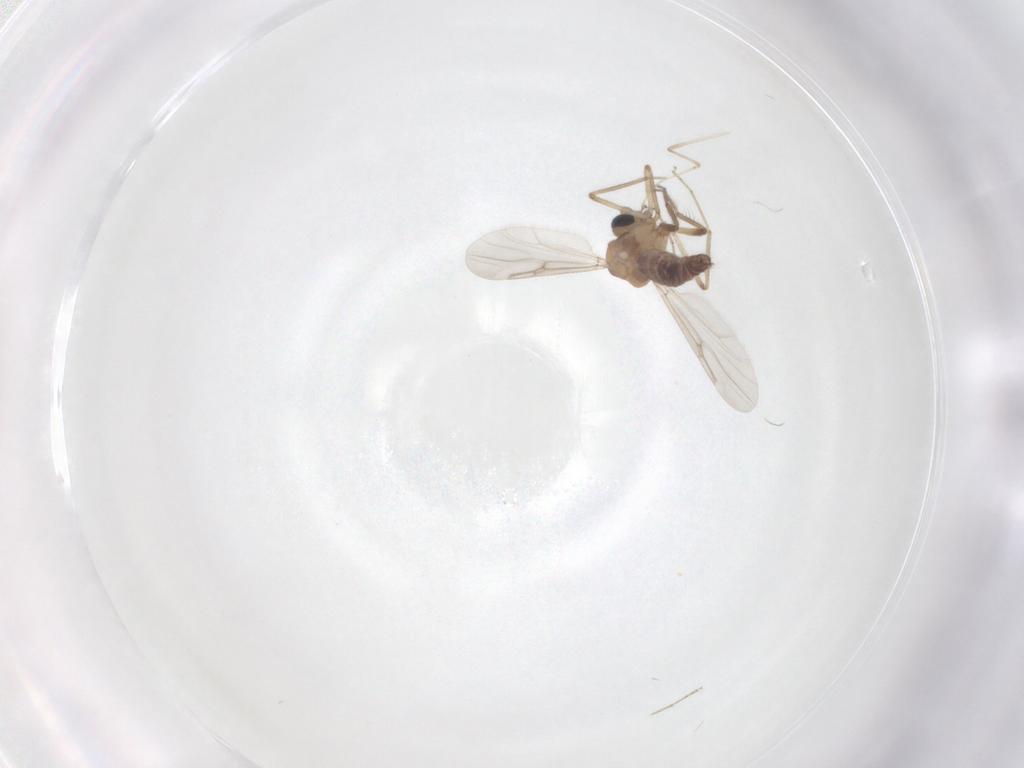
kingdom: Animalia
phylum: Arthropoda
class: Insecta
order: Diptera
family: Ceratopogonidae
